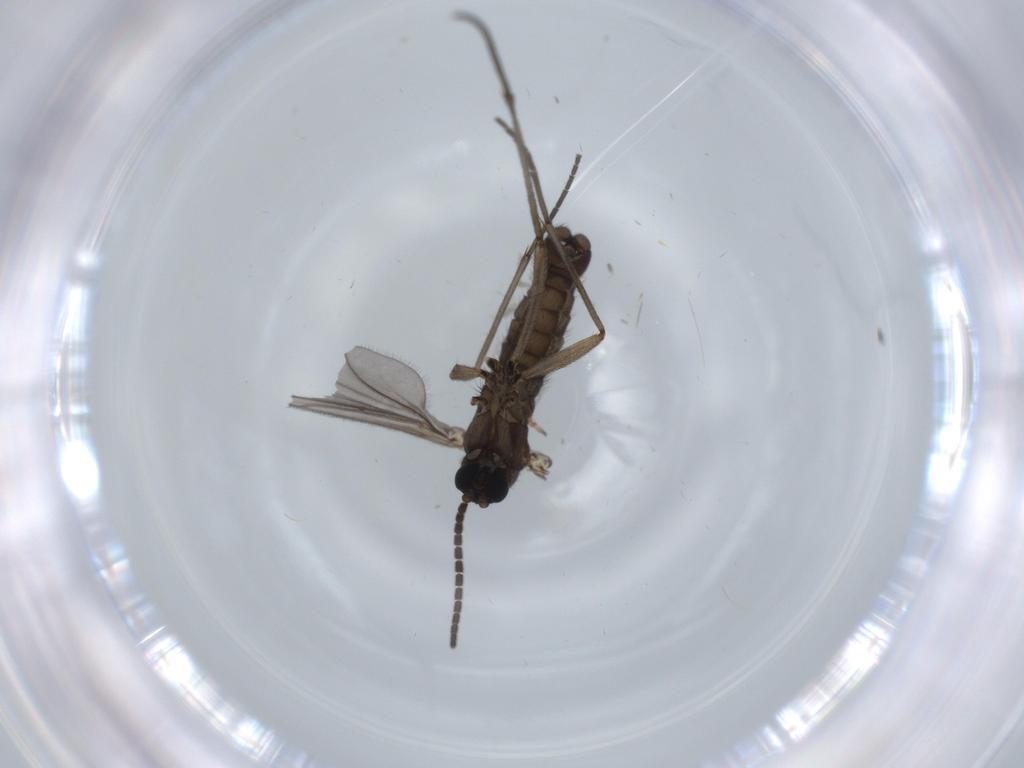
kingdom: Animalia
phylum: Arthropoda
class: Insecta
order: Diptera
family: Sciaridae
